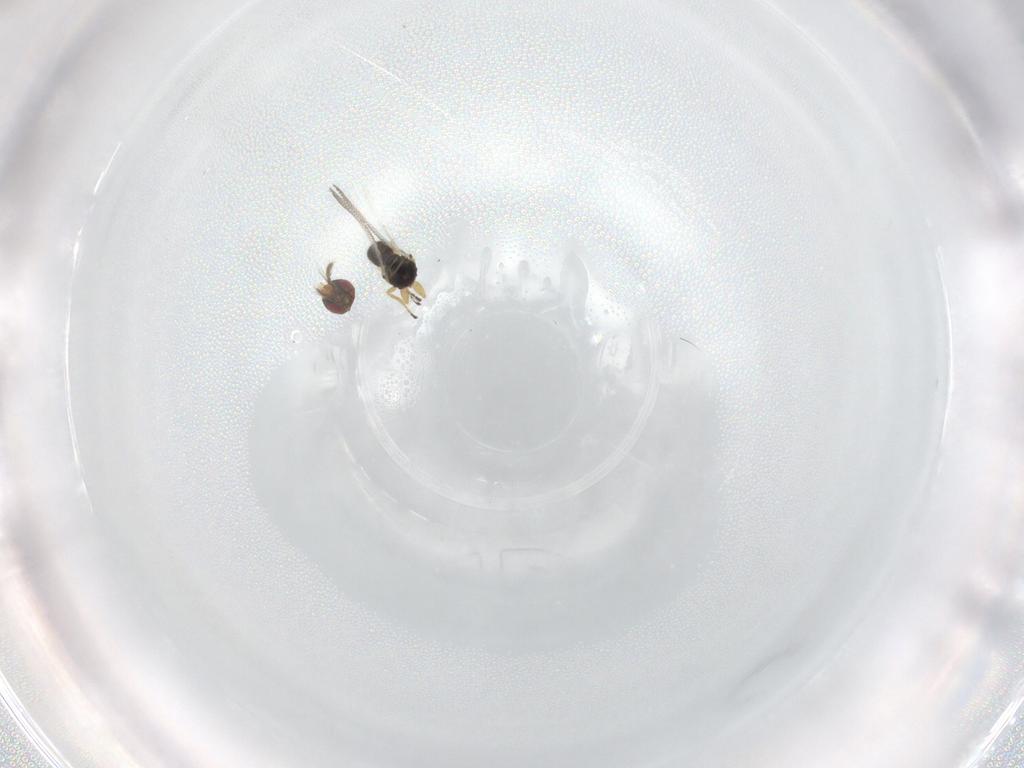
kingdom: Animalia
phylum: Arthropoda
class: Insecta
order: Hymenoptera
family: Eulophidae
